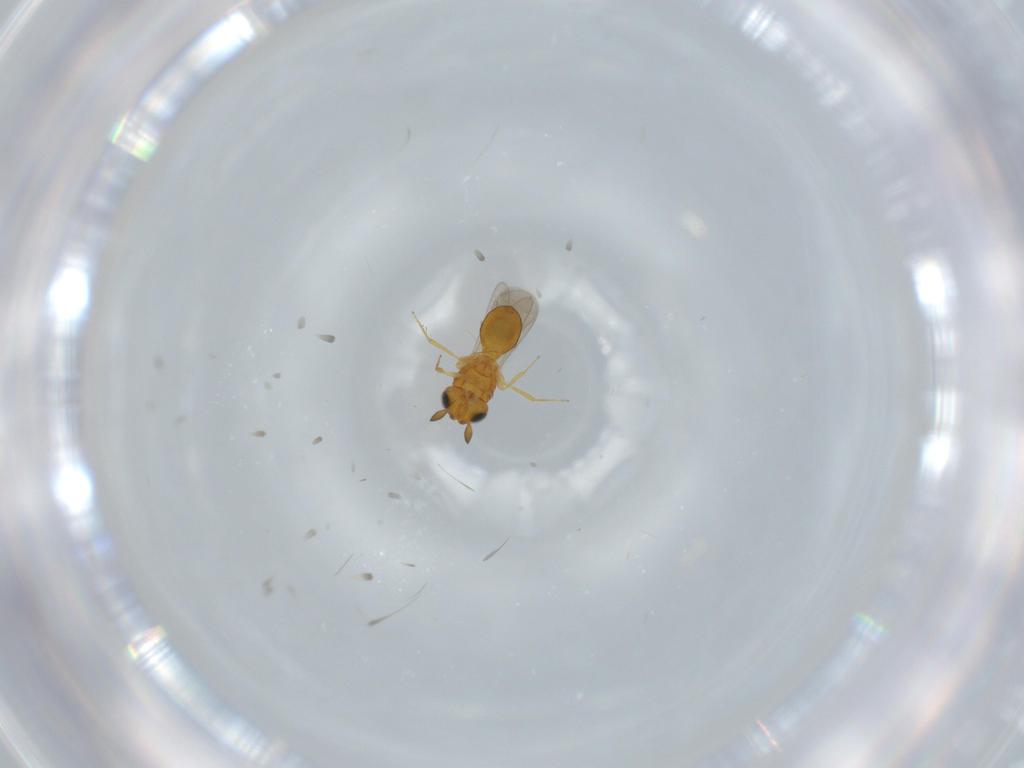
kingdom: Animalia
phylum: Arthropoda
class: Insecta
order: Hymenoptera
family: Scelionidae
